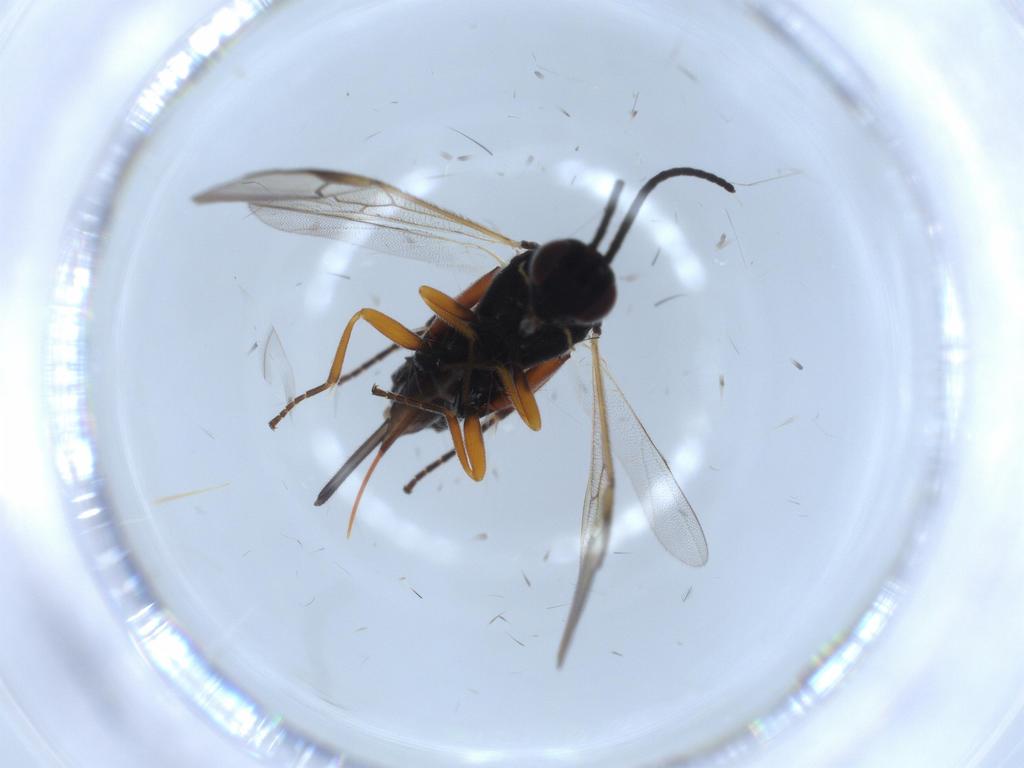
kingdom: Animalia
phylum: Arthropoda
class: Insecta
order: Hymenoptera
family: Braconidae
